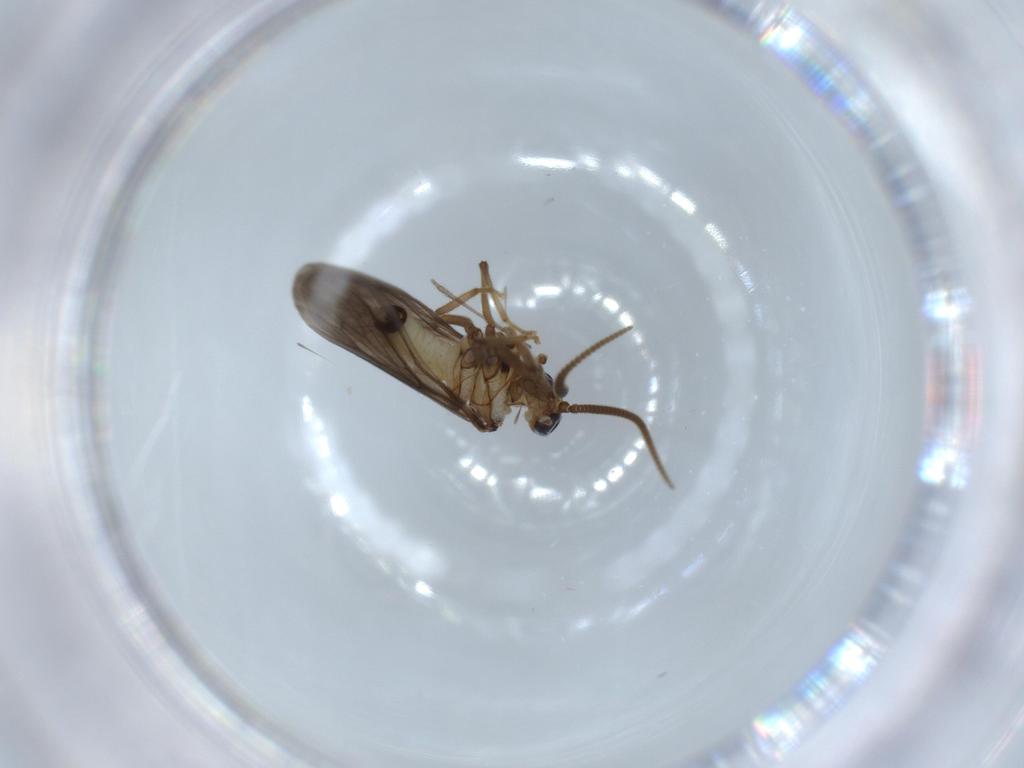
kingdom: Animalia
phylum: Arthropoda
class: Insecta
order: Neuroptera
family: Coniopterygidae
